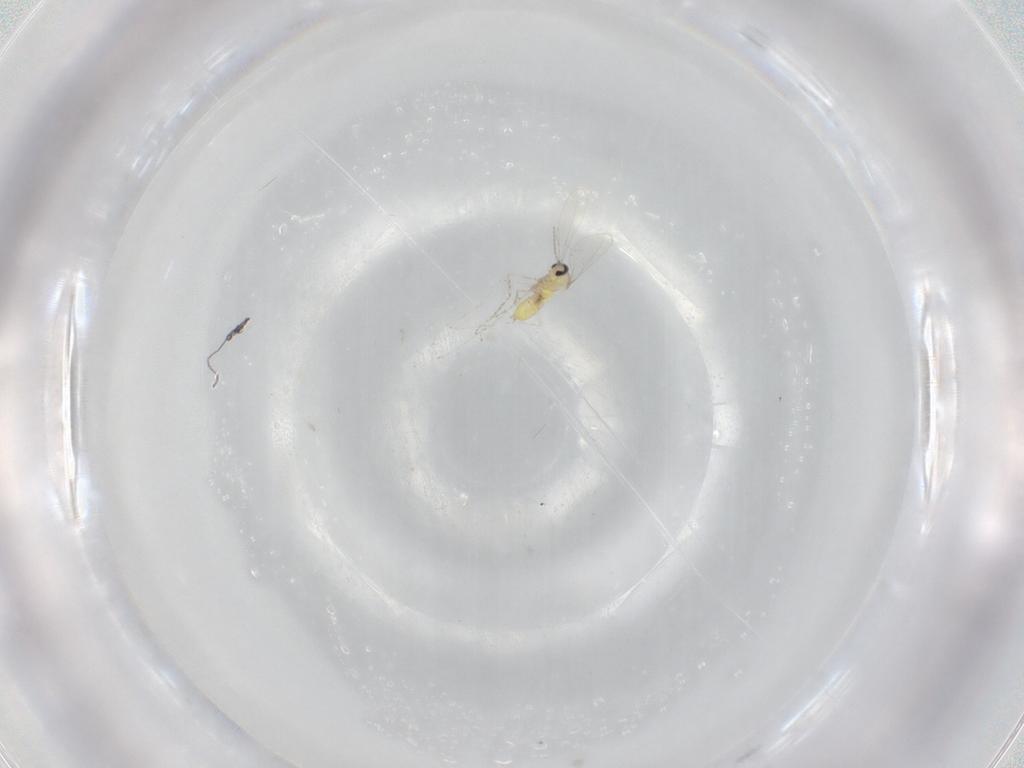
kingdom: Animalia
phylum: Arthropoda
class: Insecta
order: Diptera
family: Cecidomyiidae
